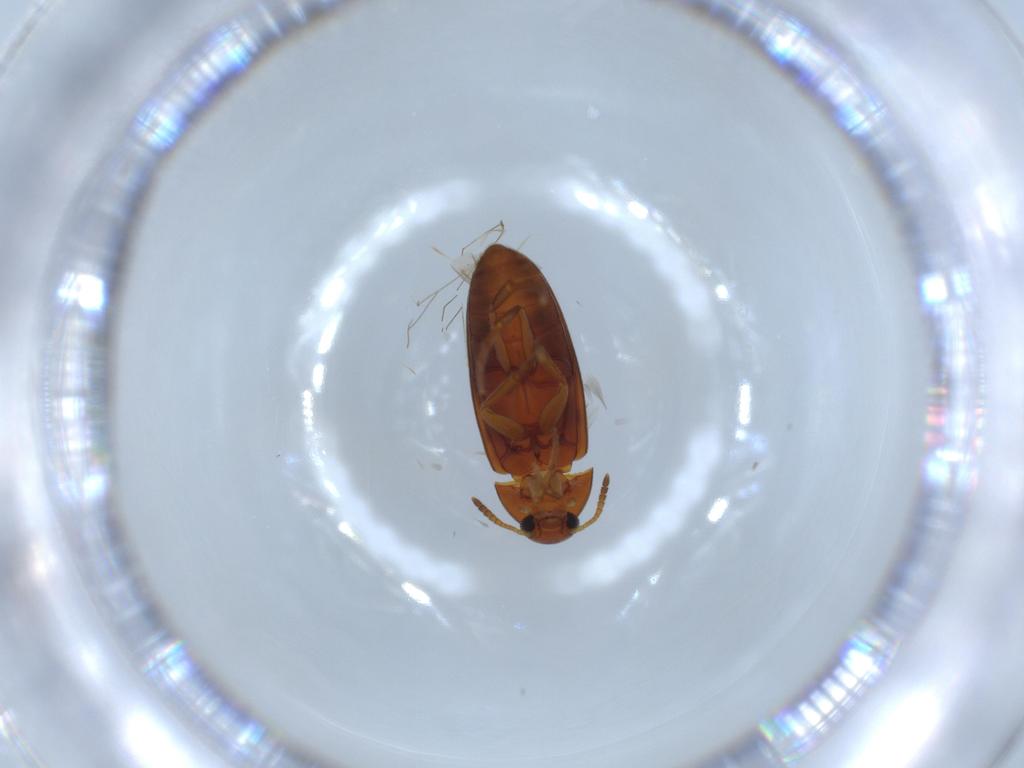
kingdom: Animalia
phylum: Arthropoda
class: Insecta
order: Coleoptera
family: Scraptiidae
